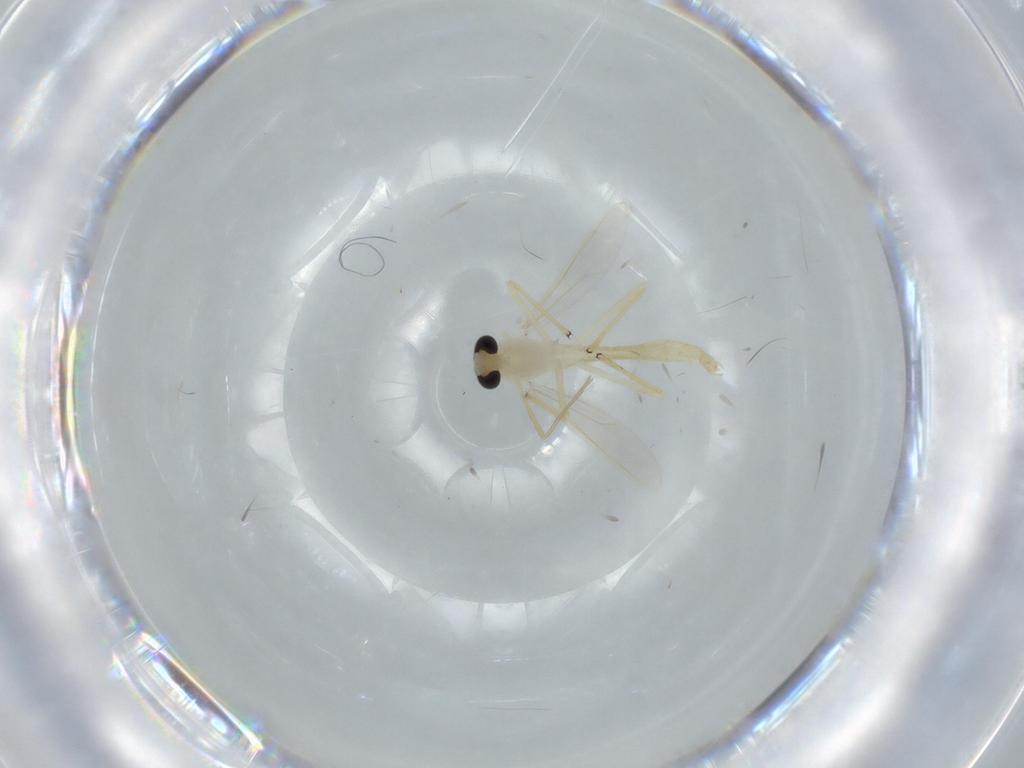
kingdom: Animalia
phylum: Arthropoda
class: Insecta
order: Diptera
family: Chironomidae
